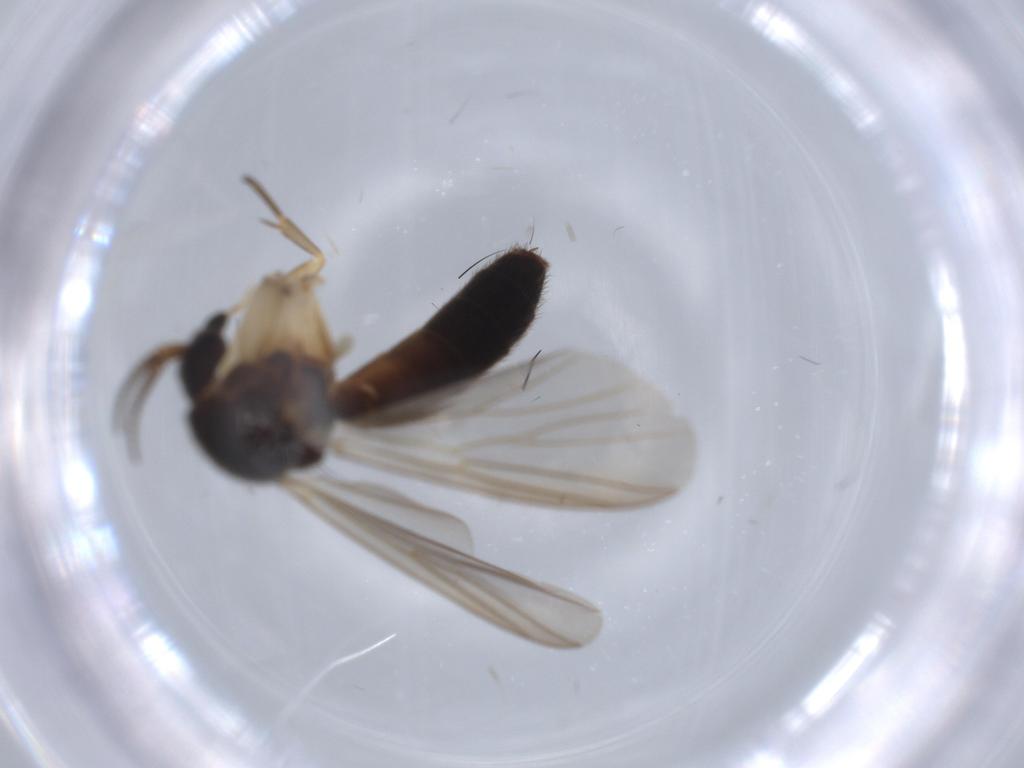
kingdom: Animalia
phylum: Arthropoda
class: Insecta
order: Diptera
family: Mycetophilidae
